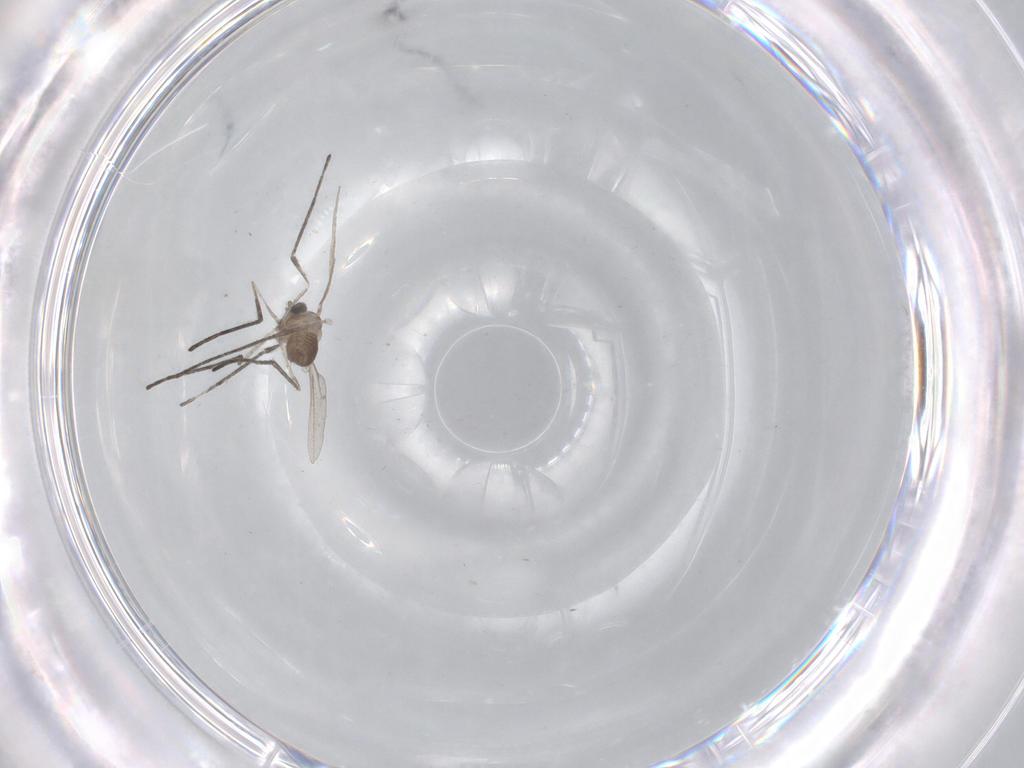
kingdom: Animalia
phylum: Arthropoda
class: Insecta
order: Diptera
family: Cecidomyiidae
